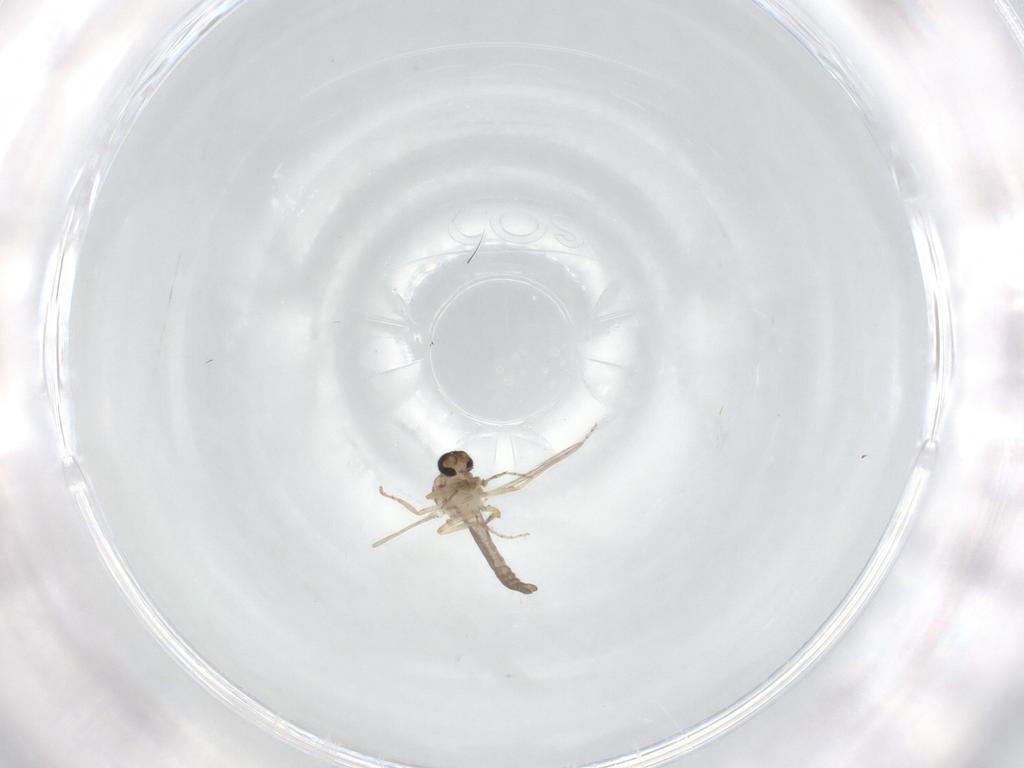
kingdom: Animalia
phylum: Arthropoda
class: Insecta
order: Diptera
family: Ceratopogonidae
